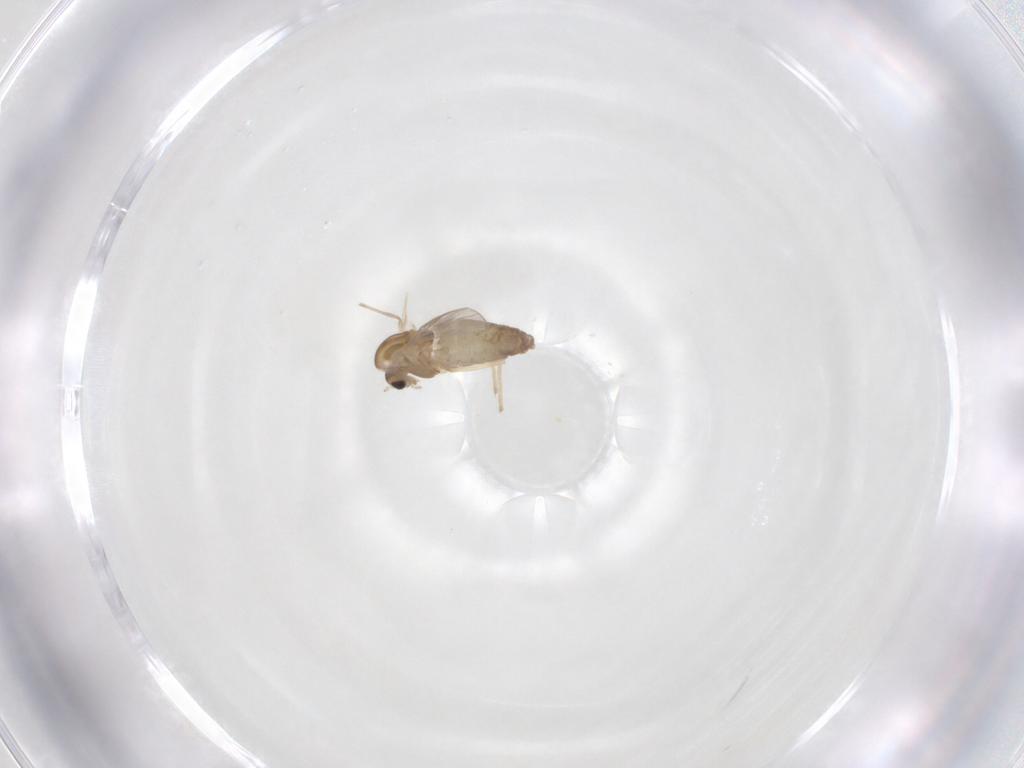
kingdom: Animalia
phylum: Arthropoda
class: Insecta
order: Diptera
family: Chironomidae
